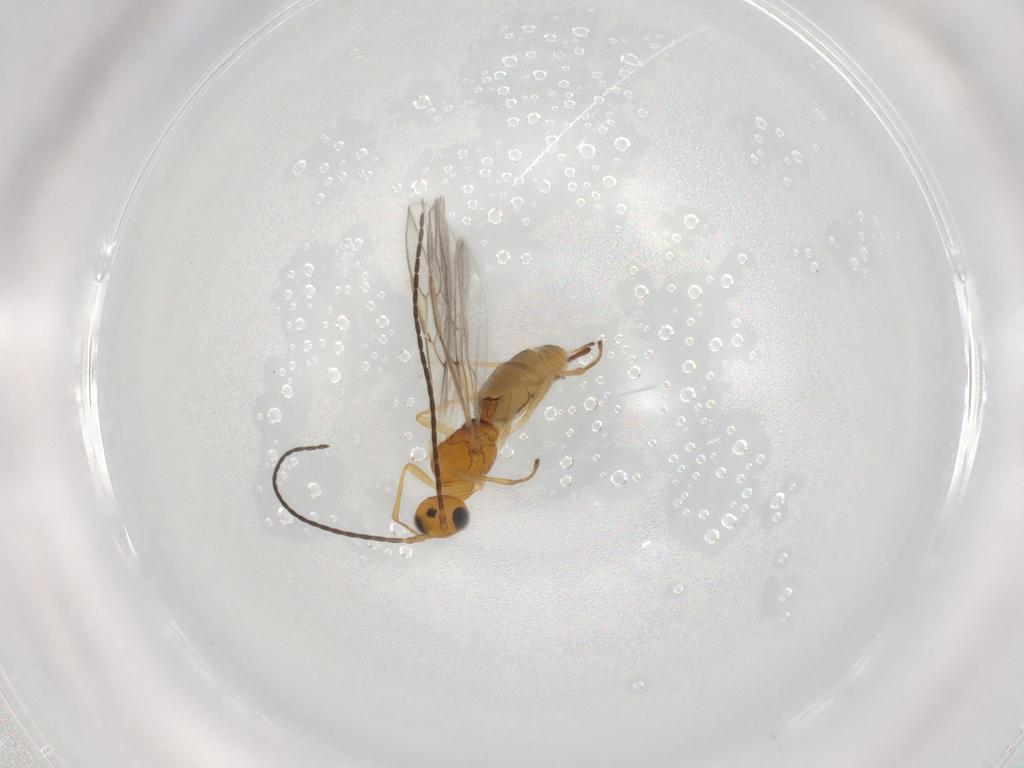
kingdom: Animalia
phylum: Arthropoda
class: Insecta
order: Hymenoptera
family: Braconidae
